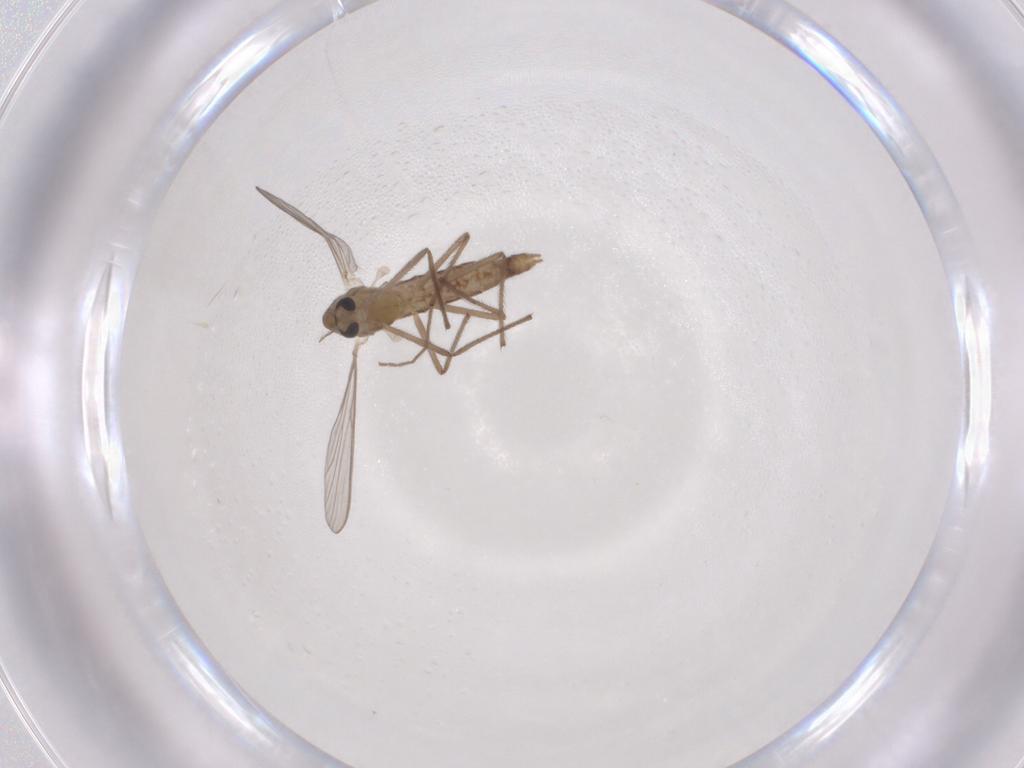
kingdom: Animalia
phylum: Arthropoda
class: Insecta
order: Diptera
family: Chironomidae
